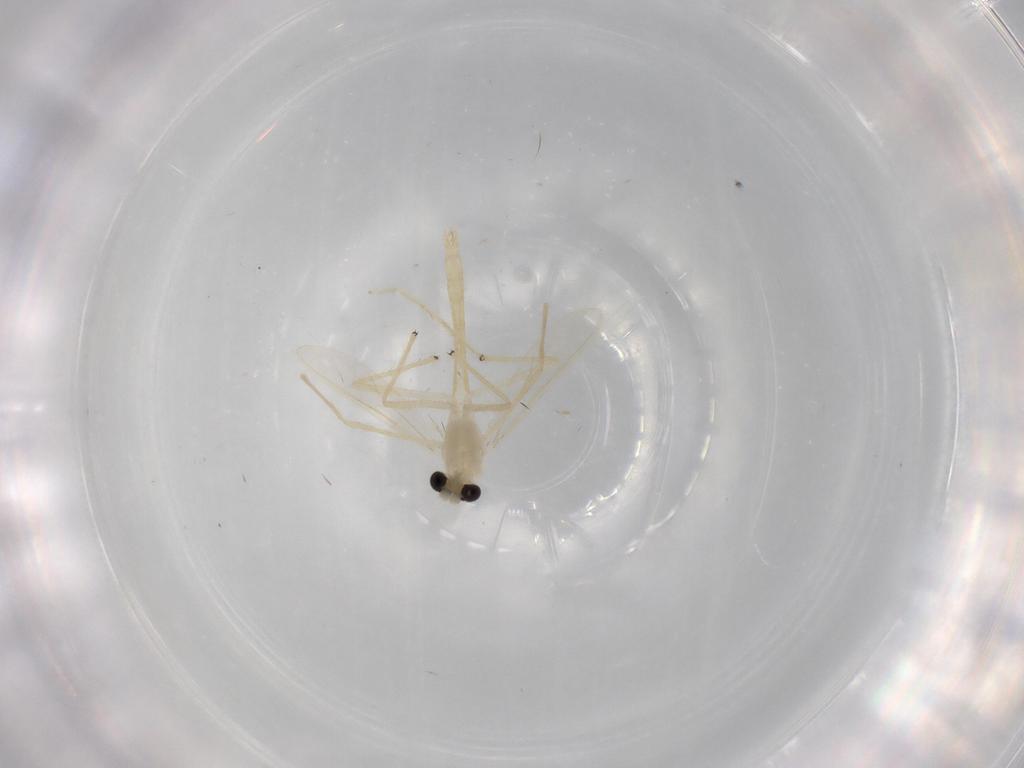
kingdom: Animalia
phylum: Arthropoda
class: Insecta
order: Diptera
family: Chironomidae
